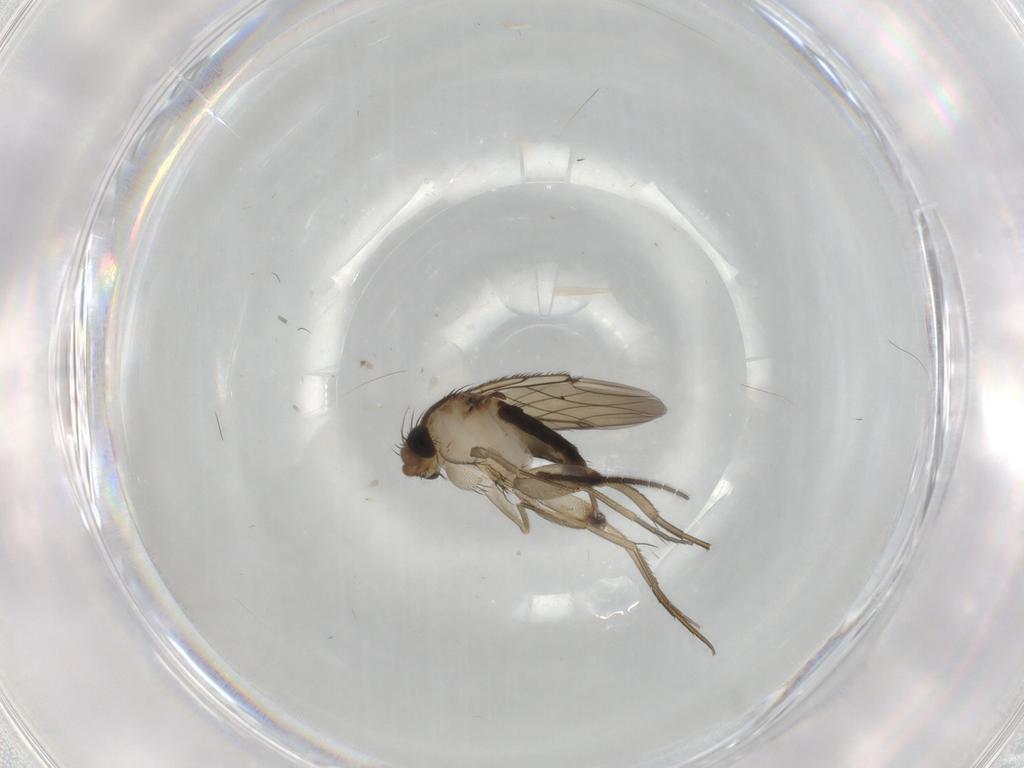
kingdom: Animalia
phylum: Arthropoda
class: Insecta
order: Diptera
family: Phoridae
